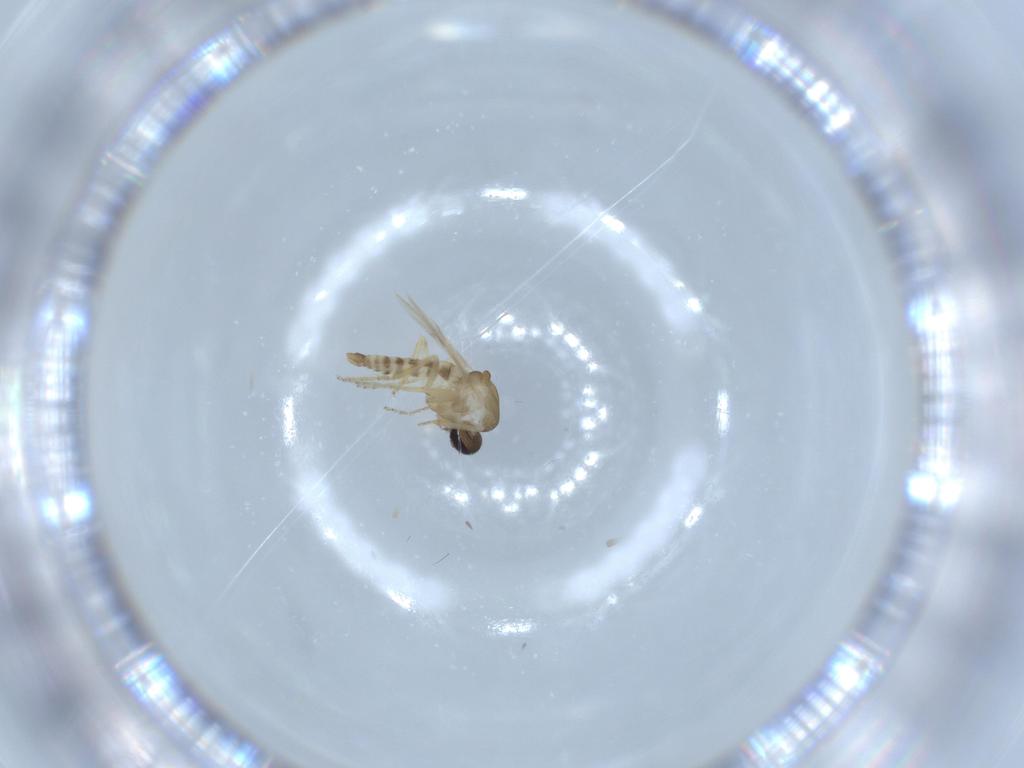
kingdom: Animalia
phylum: Arthropoda
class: Insecta
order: Diptera
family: Ceratopogonidae
